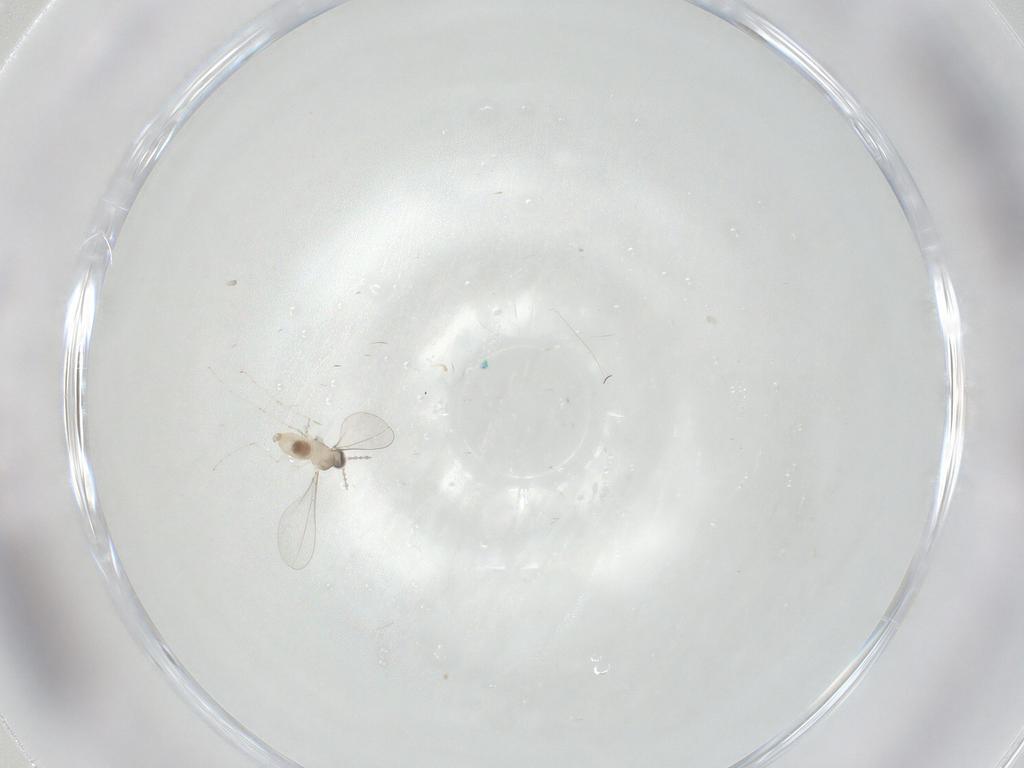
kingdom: Animalia
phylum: Arthropoda
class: Insecta
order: Diptera
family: Cecidomyiidae
